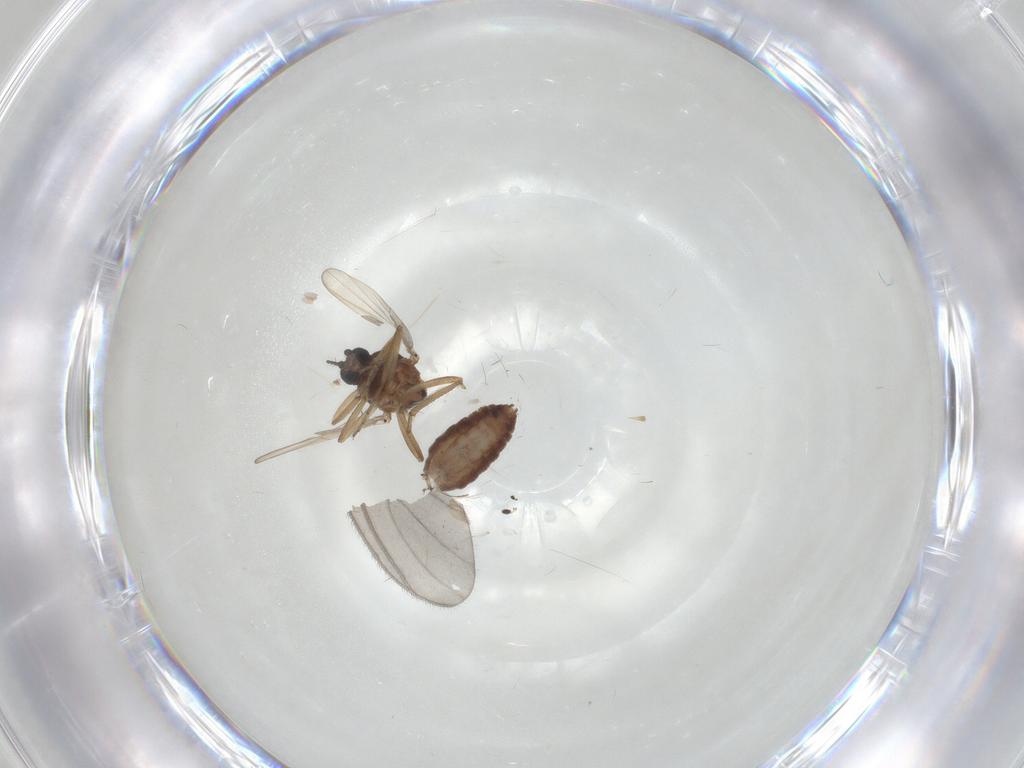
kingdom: Animalia
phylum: Arthropoda
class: Insecta
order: Diptera
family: Ceratopogonidae
